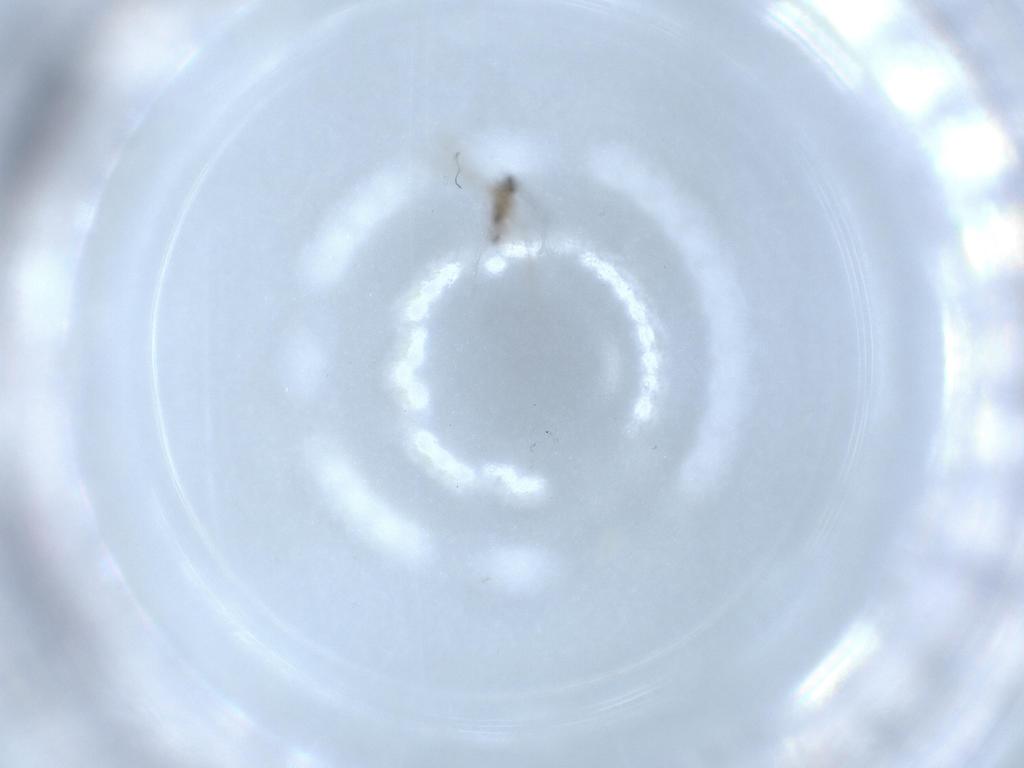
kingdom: Animalia
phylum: Arthropoda
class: Insecta
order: Diptera
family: Cecidomyiidae
